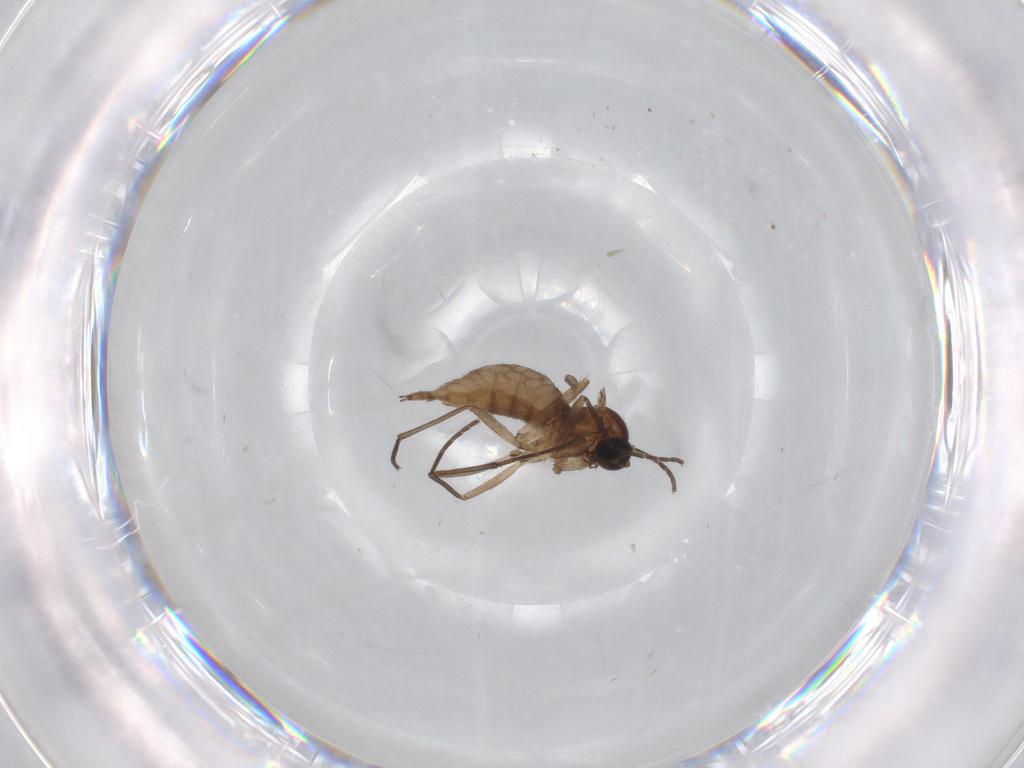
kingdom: Animalia
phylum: Arthropoda
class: Insecta
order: Diptera
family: Sciaridae
